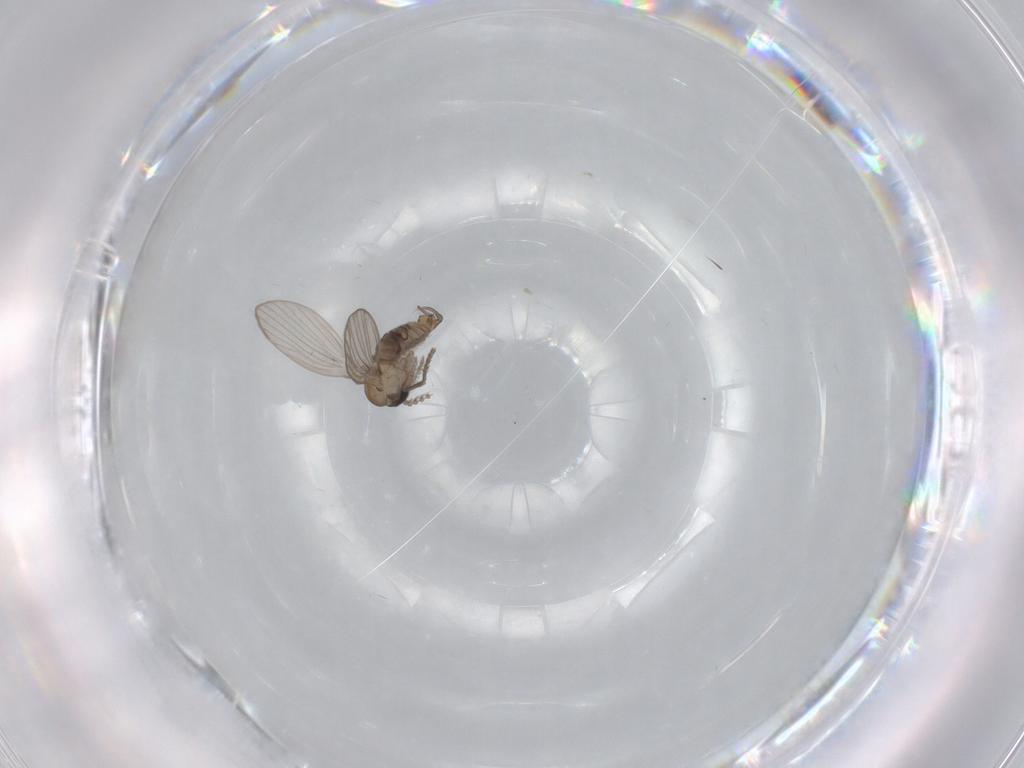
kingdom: Animalia
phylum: Arthropoda
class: Insecta
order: Diptera
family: Psychodidae
